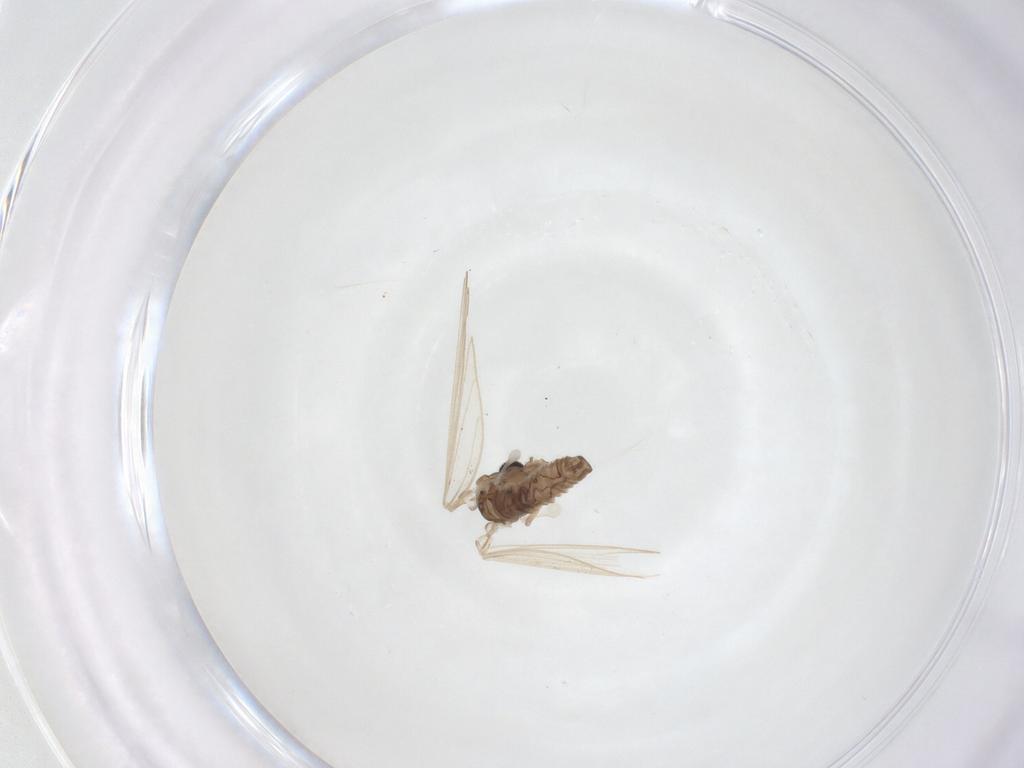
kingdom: Animalia
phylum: Arthropoda
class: Insecta
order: Diptera
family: Psychodidae
